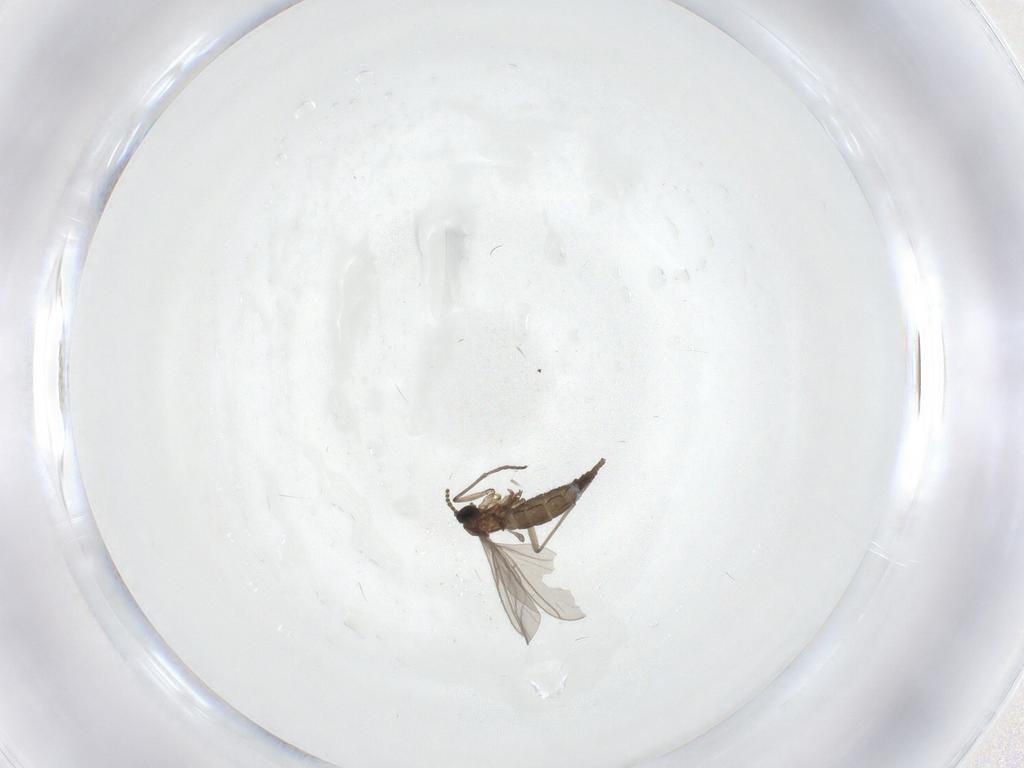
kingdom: Animalia
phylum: Arthropoda
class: Insecta
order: Diptera
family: Sciaridae
